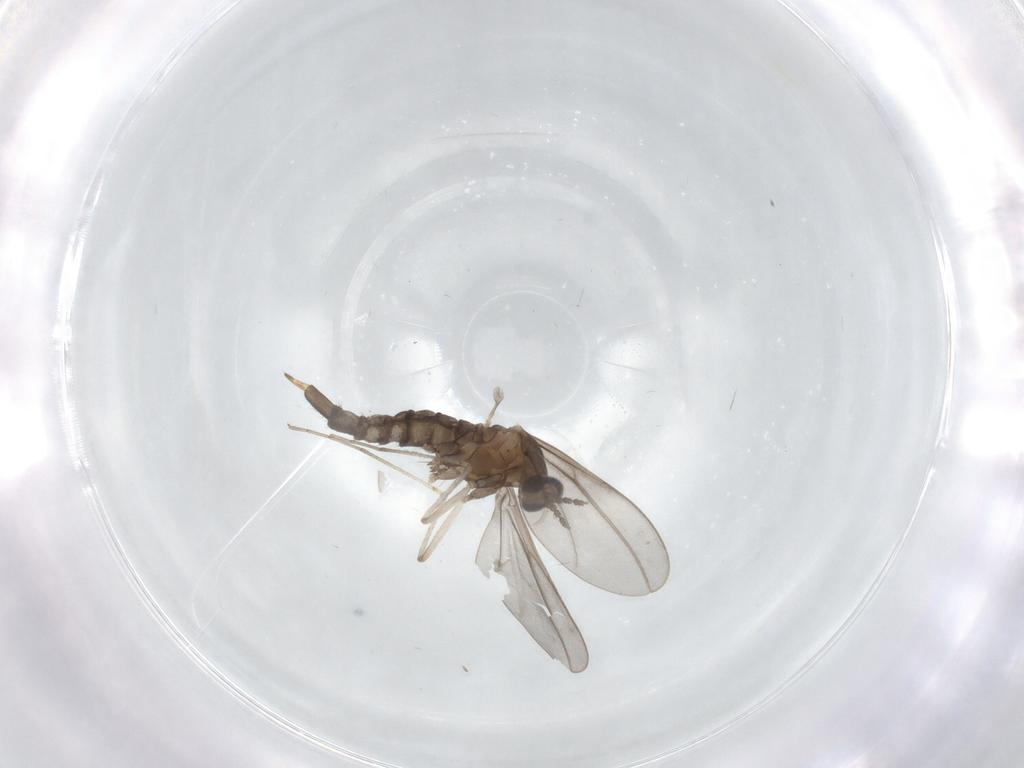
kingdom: Animalia
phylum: Arthropoda
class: Insecta
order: Diptera
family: Cecidomyiidae
